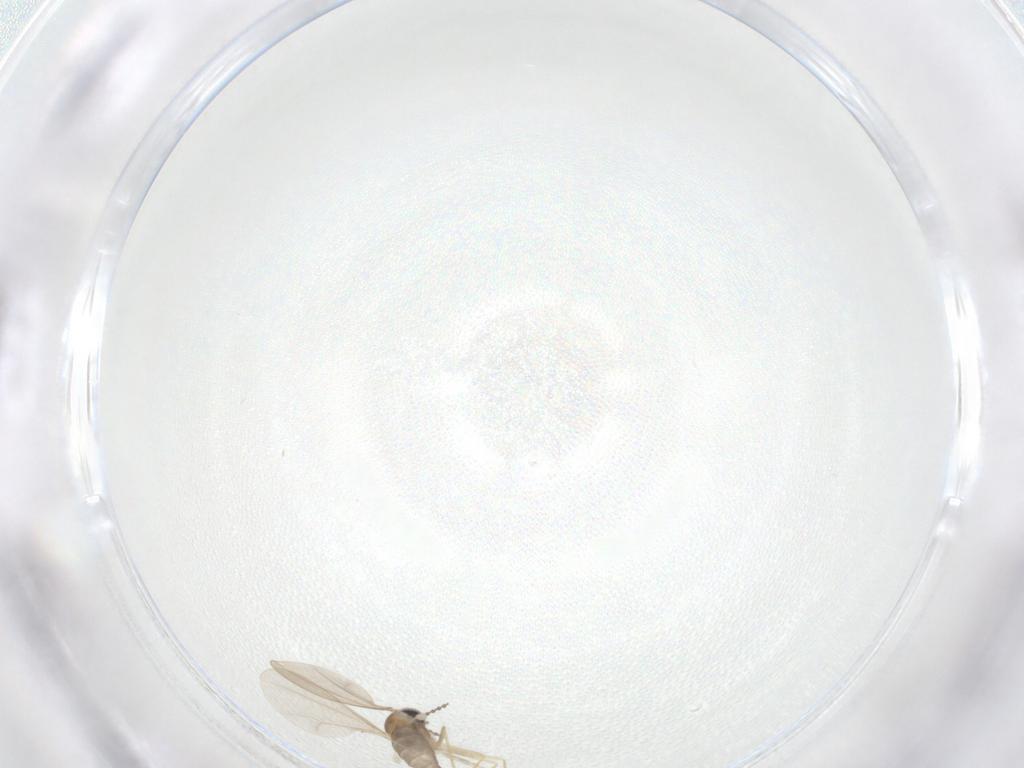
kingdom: Animalia
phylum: Arthropoda
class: Insecta
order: Diptera
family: Cecidomyiidae
